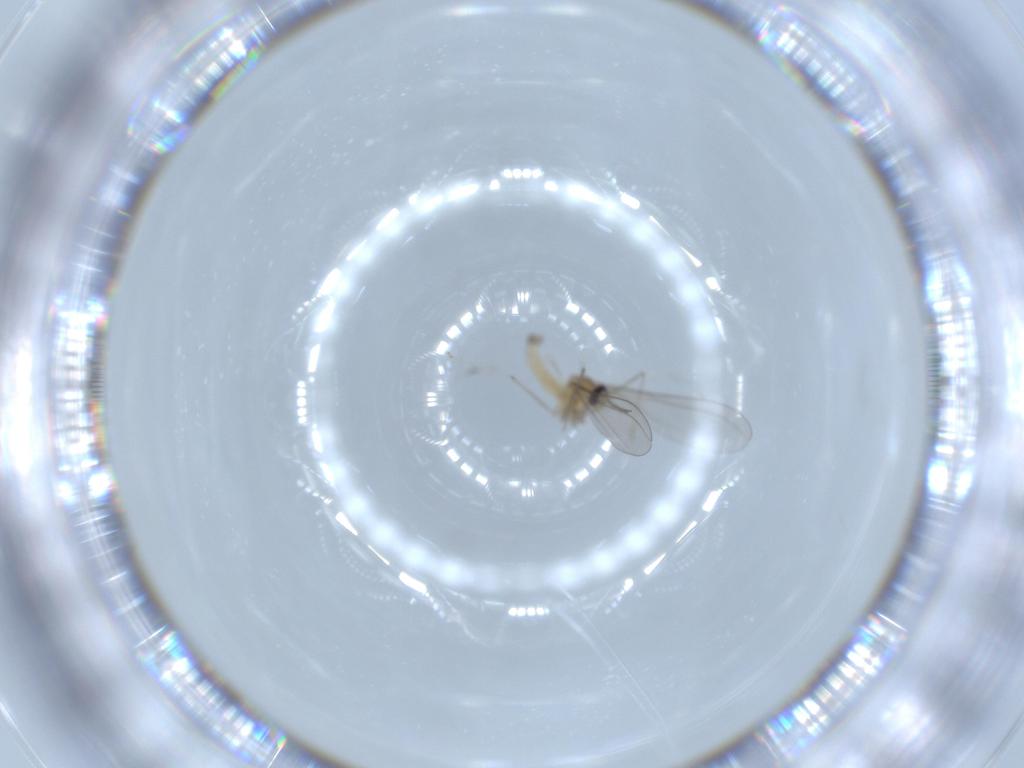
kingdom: Animalia
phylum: Arthropoda
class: Insecta
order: Diptera
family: Cecidomyiidae
